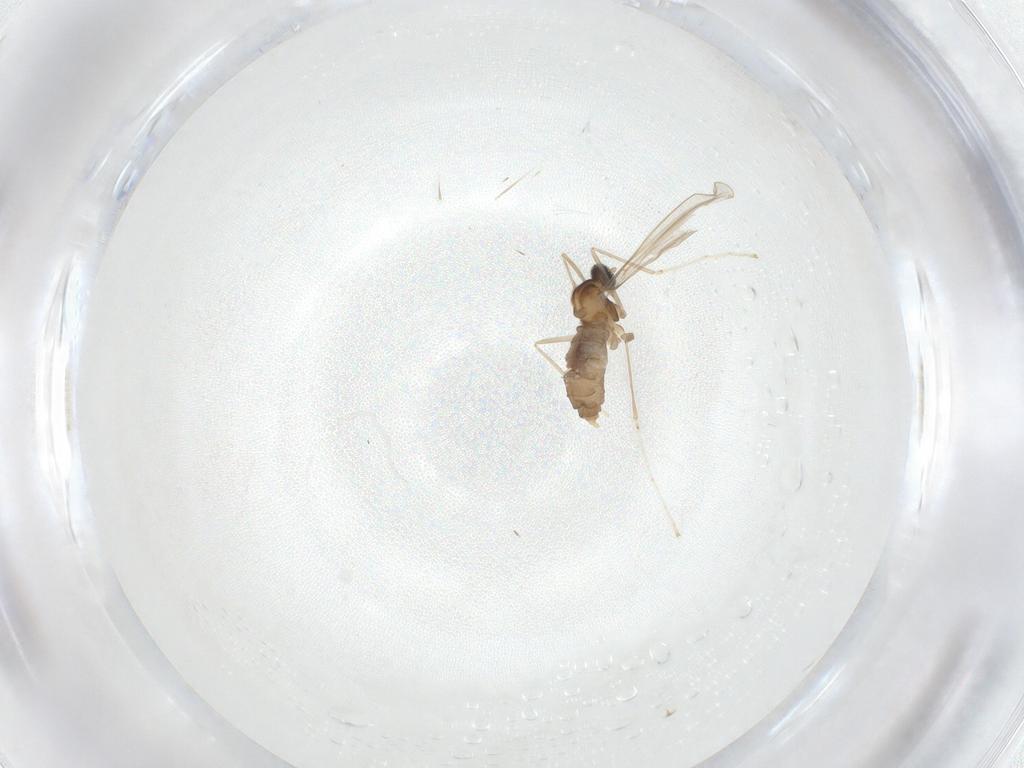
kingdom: Animalia
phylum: Arthropoda
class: Insecta
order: Diptera
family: Cecidomyiidae
